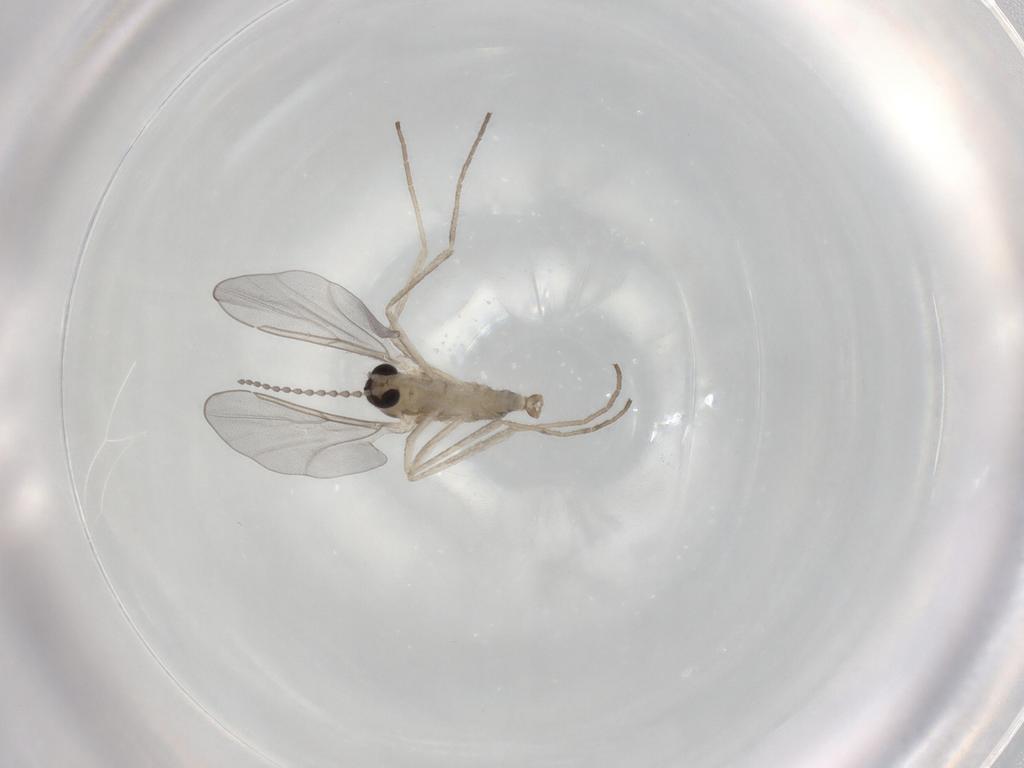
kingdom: Animalia
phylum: Arthropoda
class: Insecta
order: Diptera
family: Cecidomyiidae
